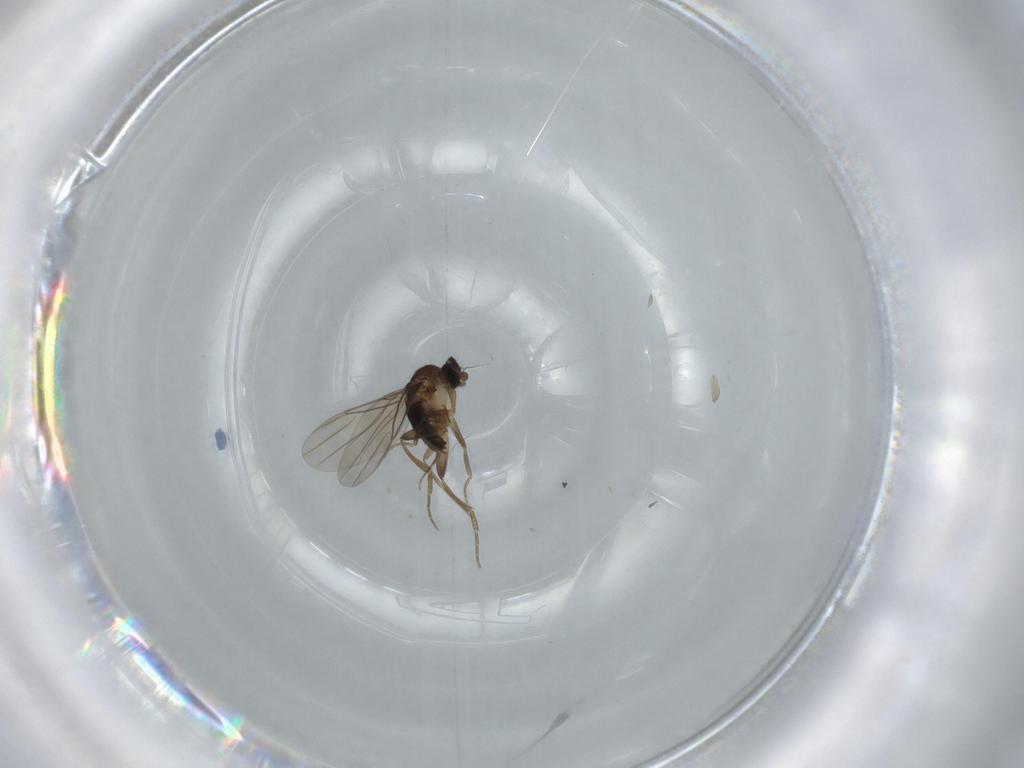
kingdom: Animalia
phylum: Arthropoda
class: Insecta
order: Diptera
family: Phoridae
